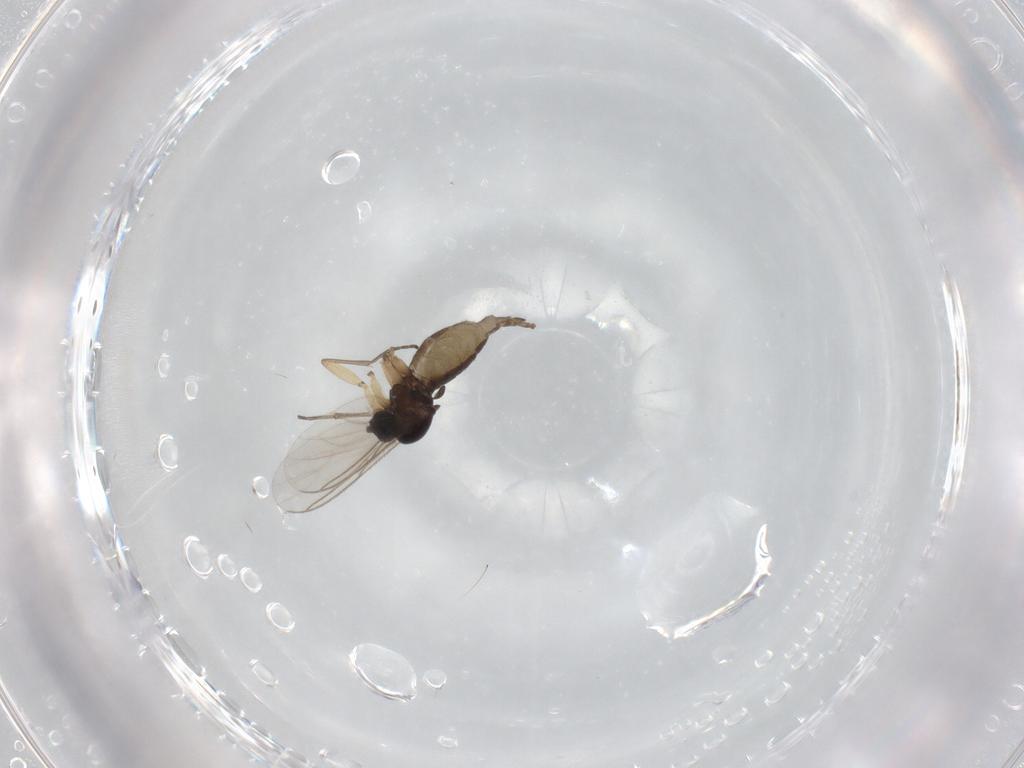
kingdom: Animalia
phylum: Arthropoda
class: Insecta
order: Diptera
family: Sciaridae
